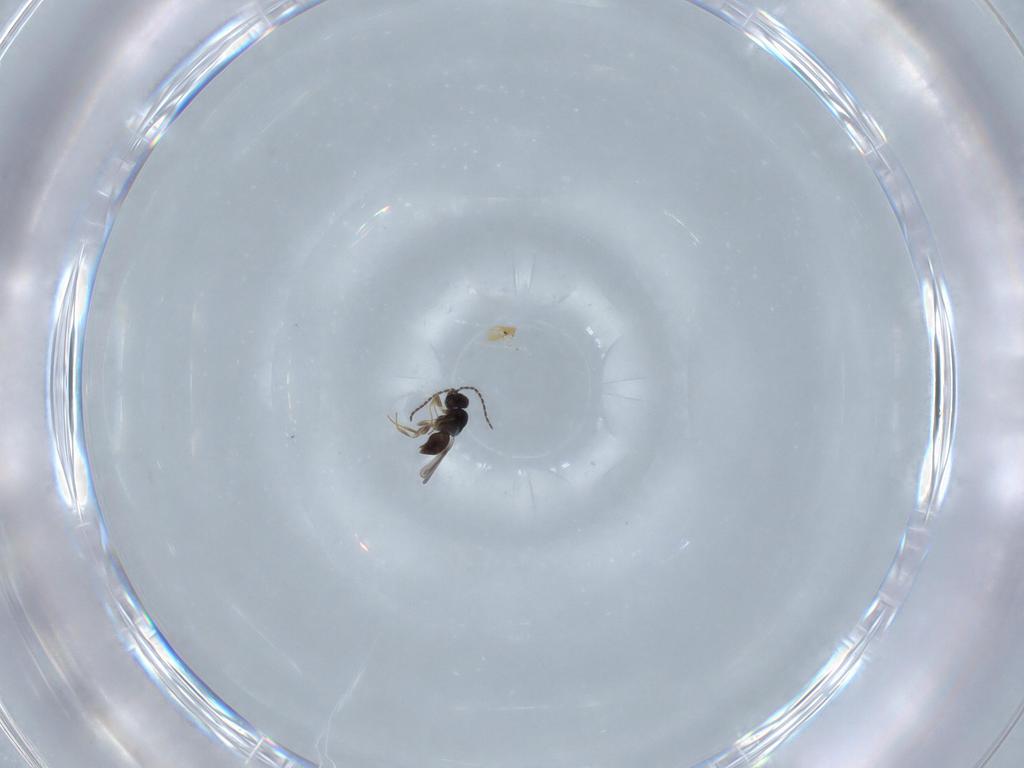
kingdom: Animalia
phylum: Arthropoda
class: Insecta
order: Hymenoptera
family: Ceraphronidae
